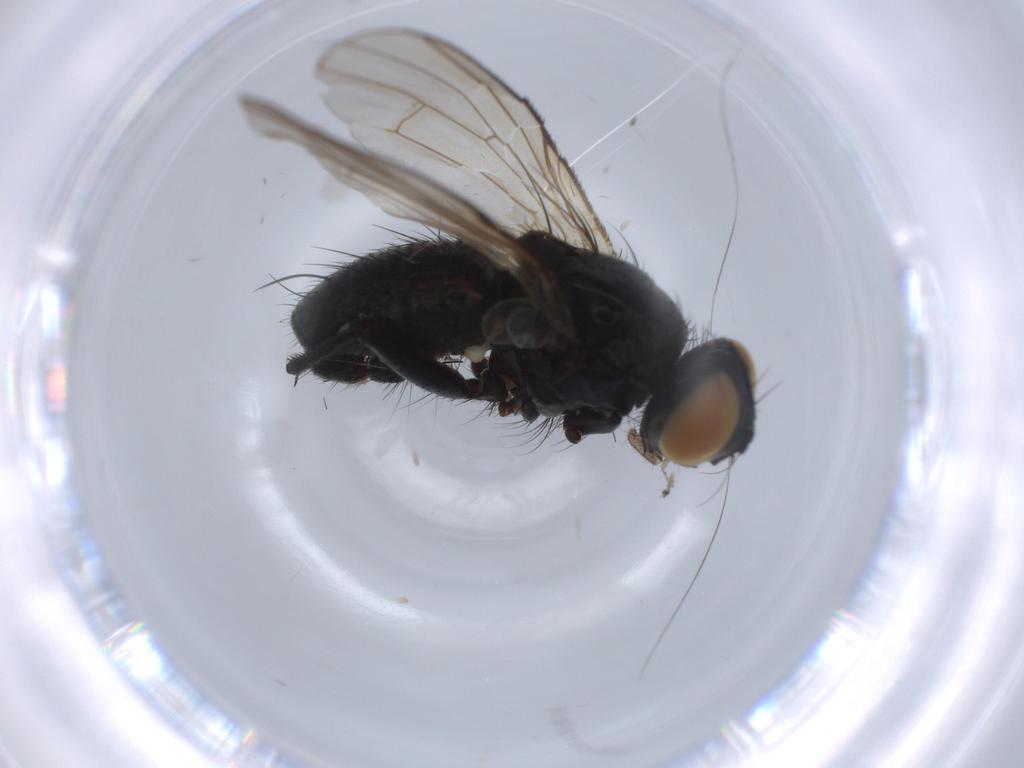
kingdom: Animalia
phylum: Arthropoda
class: Insecta
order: Diptera
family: Muscidae
